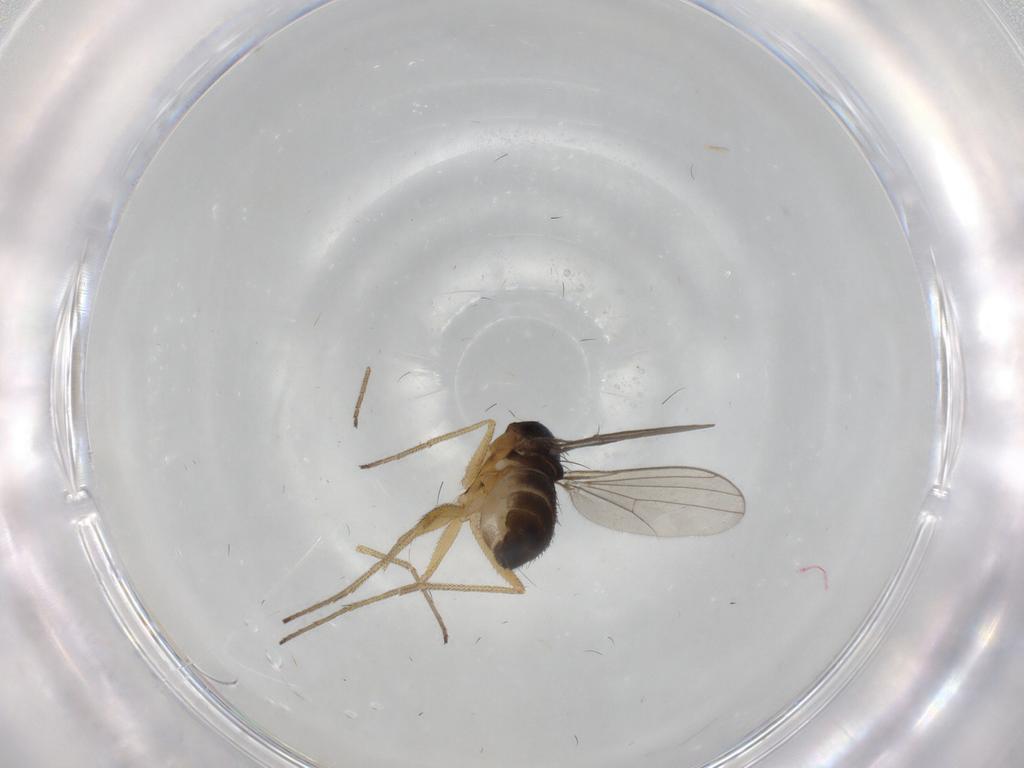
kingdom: Animalia
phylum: Arthropoda
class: Insecta
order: Diptera
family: Dolichopodidae
